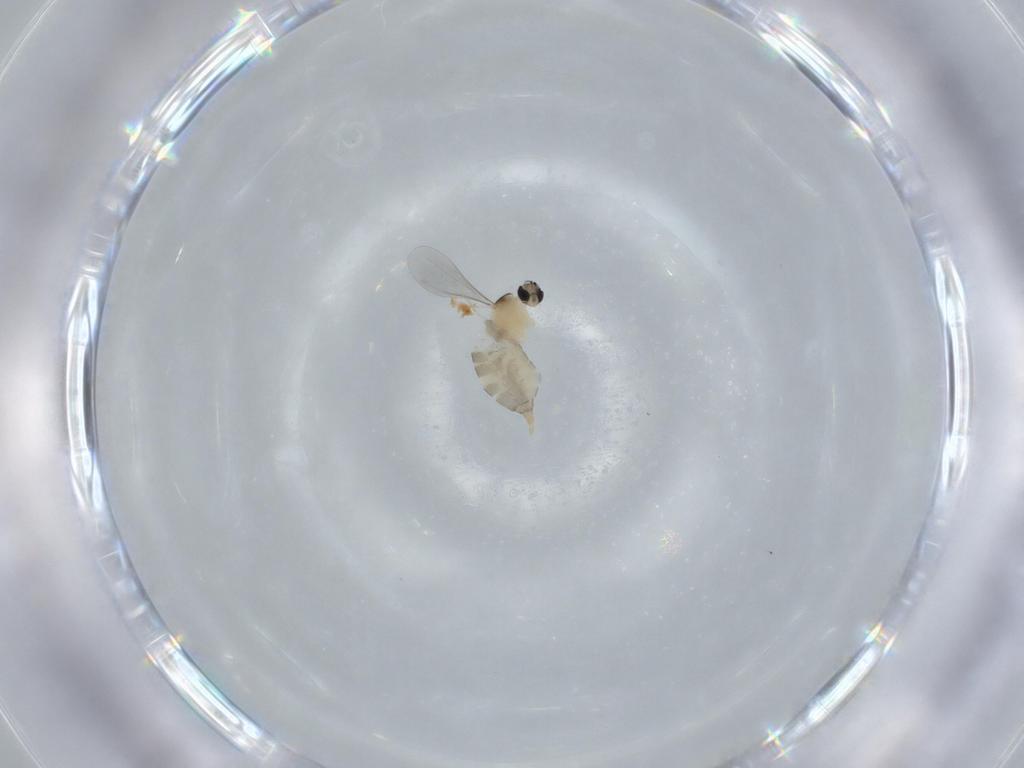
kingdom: Animalia
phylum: Arthropoda
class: Insecta
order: Diptera
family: Cecidomyiidae
